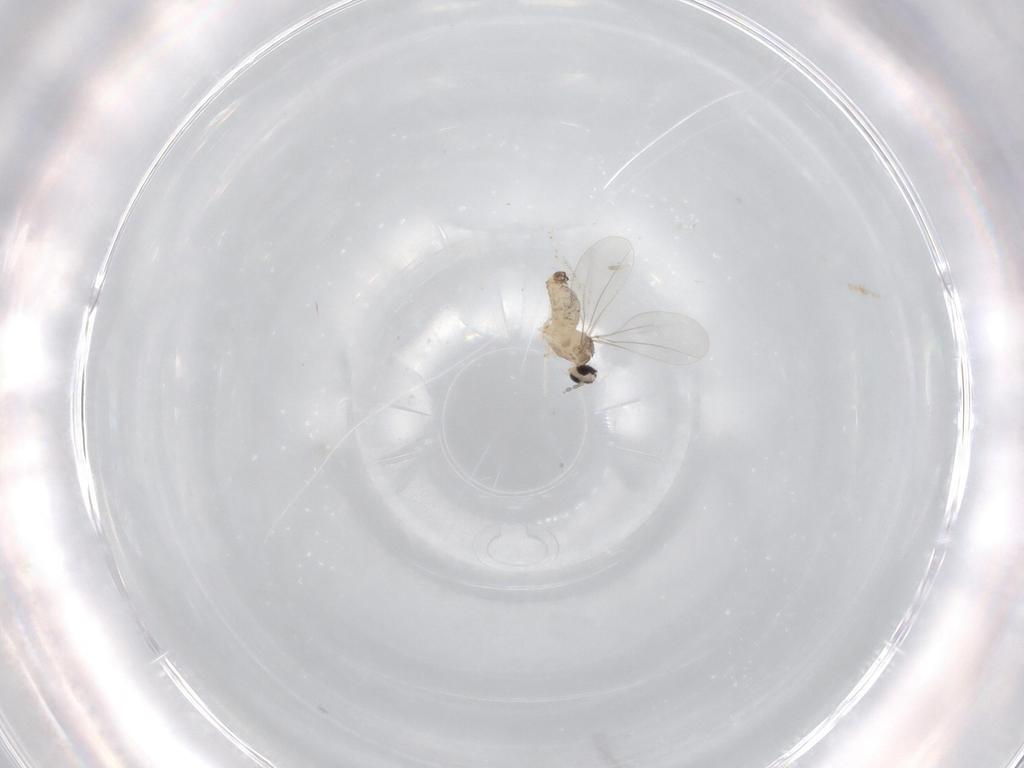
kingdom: Animalia
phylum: Arthropoda
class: Insecta
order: Diptera
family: Cecidomyiidae
